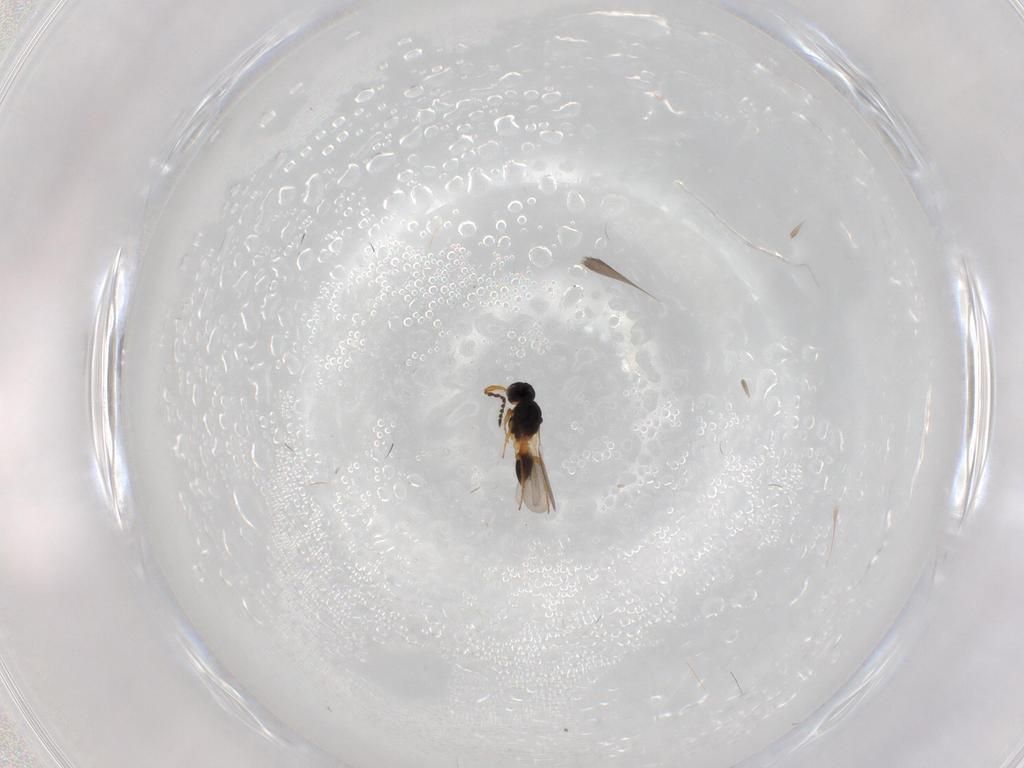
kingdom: Animalia
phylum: Arthropoda
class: Insecta
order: Hymenoptera
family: Platygastridae
